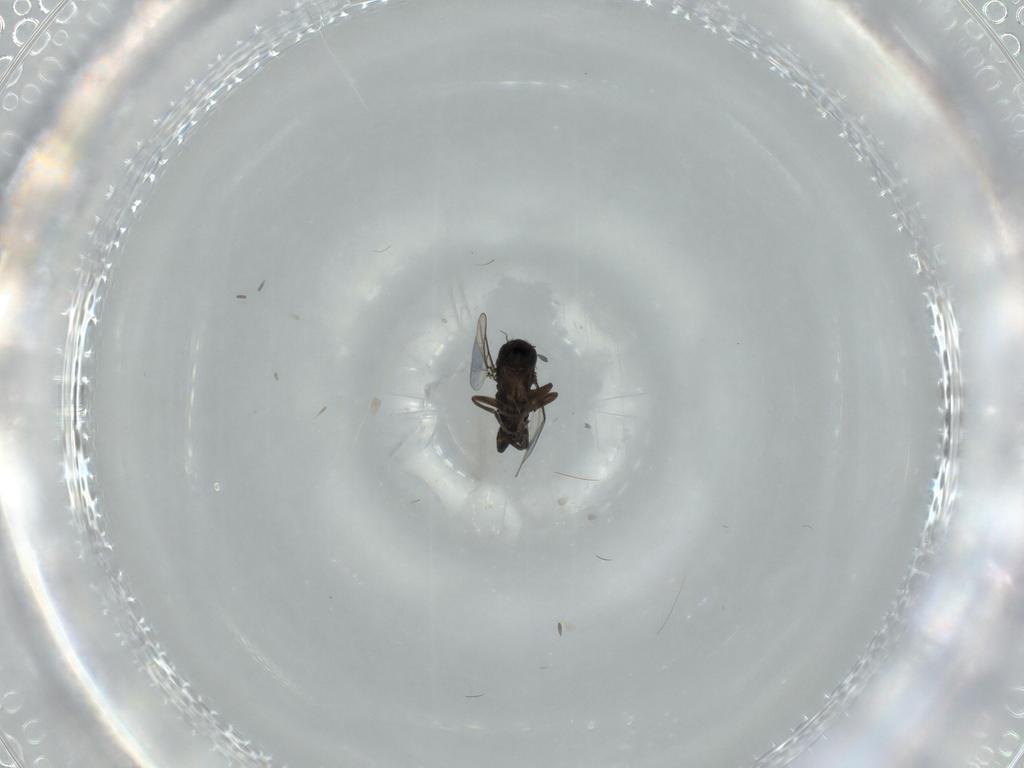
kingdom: Animalia
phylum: Arthropoda
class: Insecta
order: Diptera
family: Phoridae
